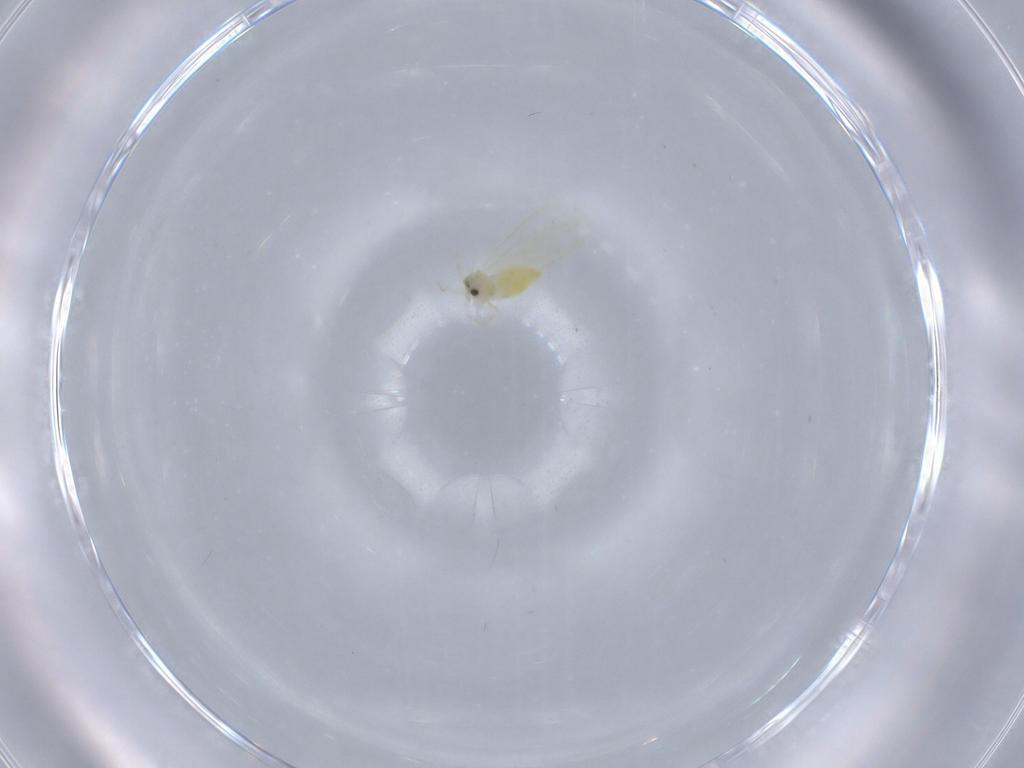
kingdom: Animalia
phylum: Arthropoda
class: Insecta
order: Hemiptera
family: Aleyrodidae
